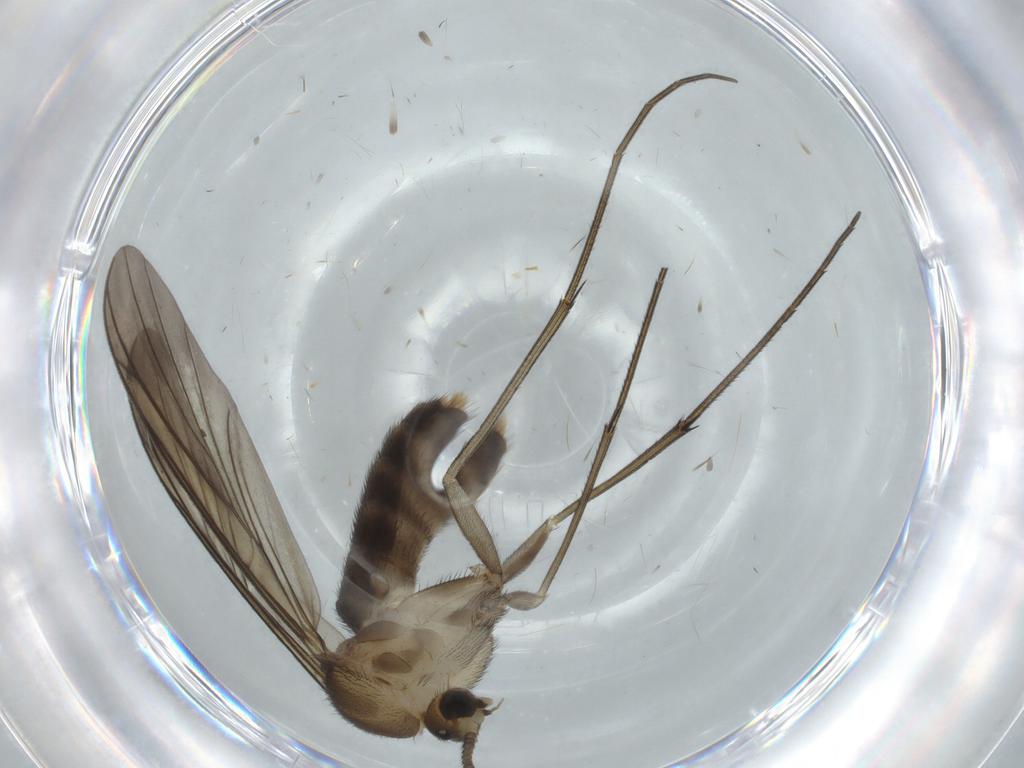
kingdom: Animalia
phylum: Arthropoda
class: Insecta
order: Diptera
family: Mycetophilidae
